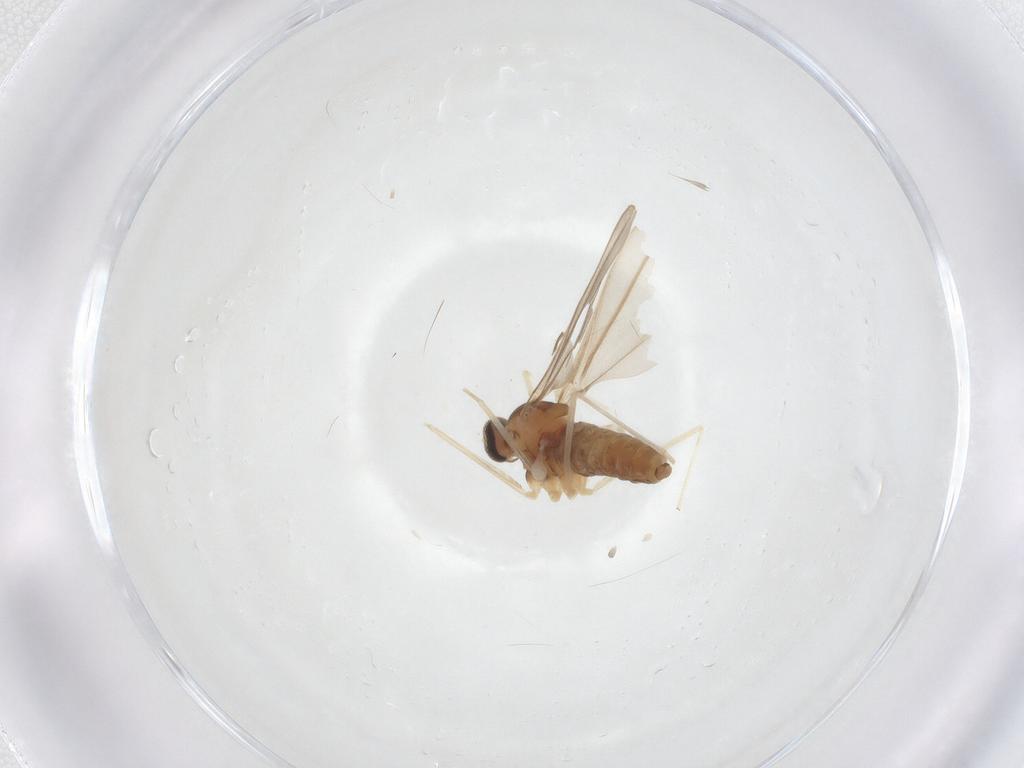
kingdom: Animalia
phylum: Arthropoda
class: Insecta
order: Diptera
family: Cecidomyiidae
